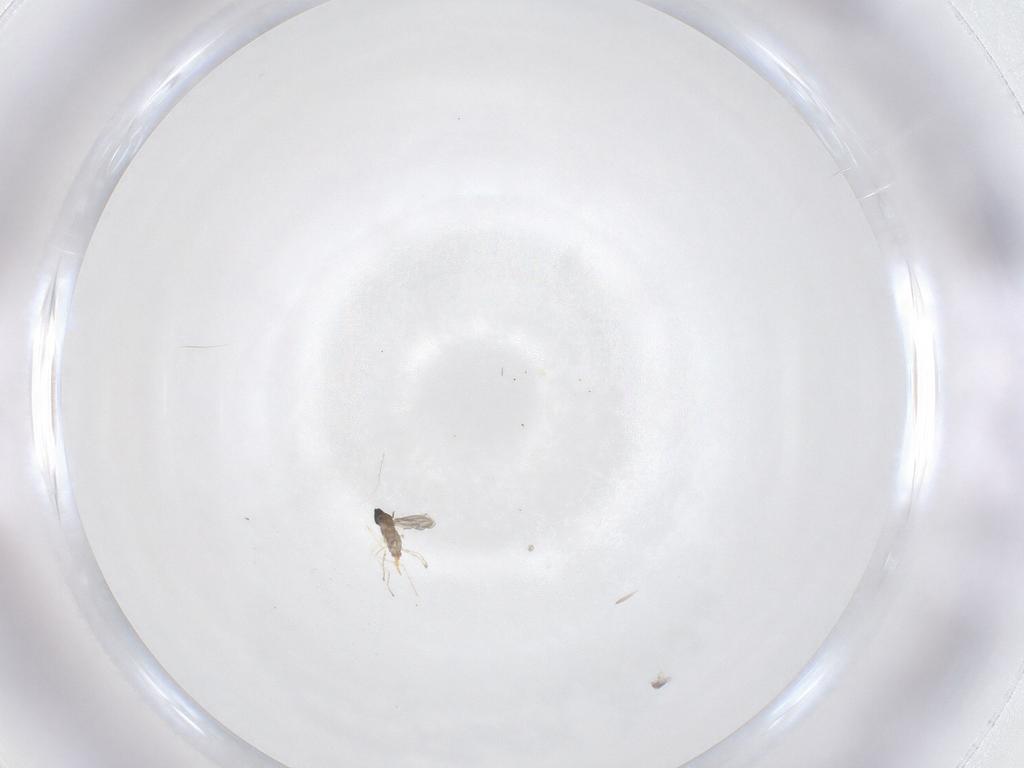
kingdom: Animalia
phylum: Arthropoda
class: Insecta
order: Diptera
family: Cecidomyiidae
